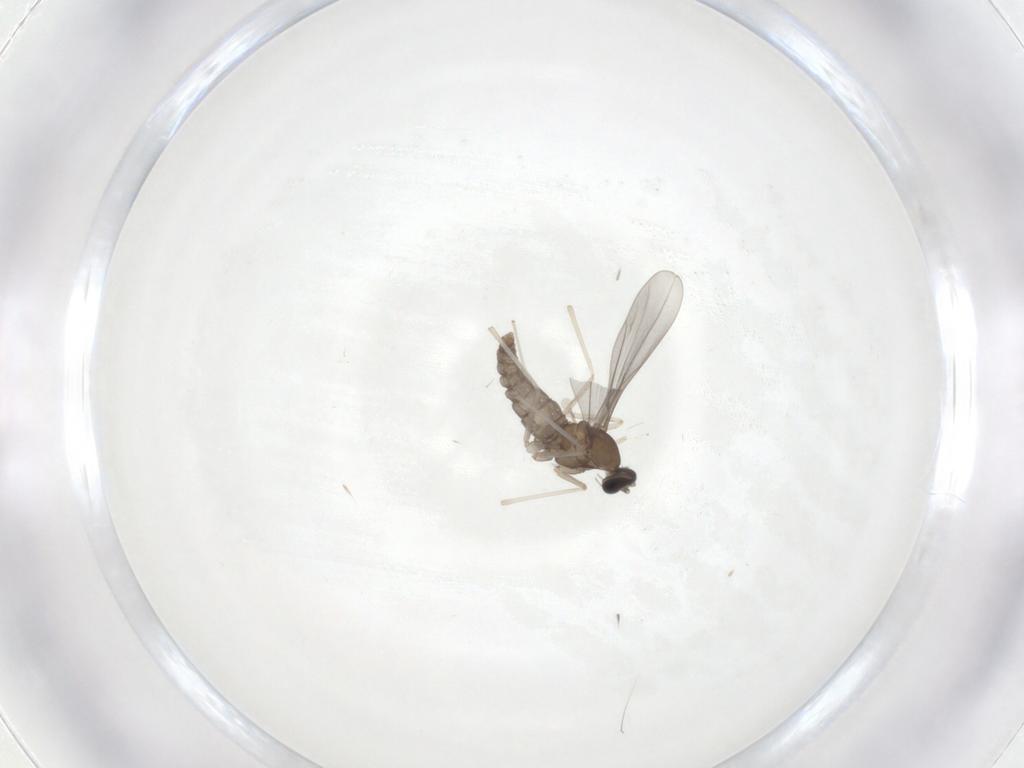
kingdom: Animalia
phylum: Arthropoda
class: Insecta
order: Diptera
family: Cecidomyiidae
